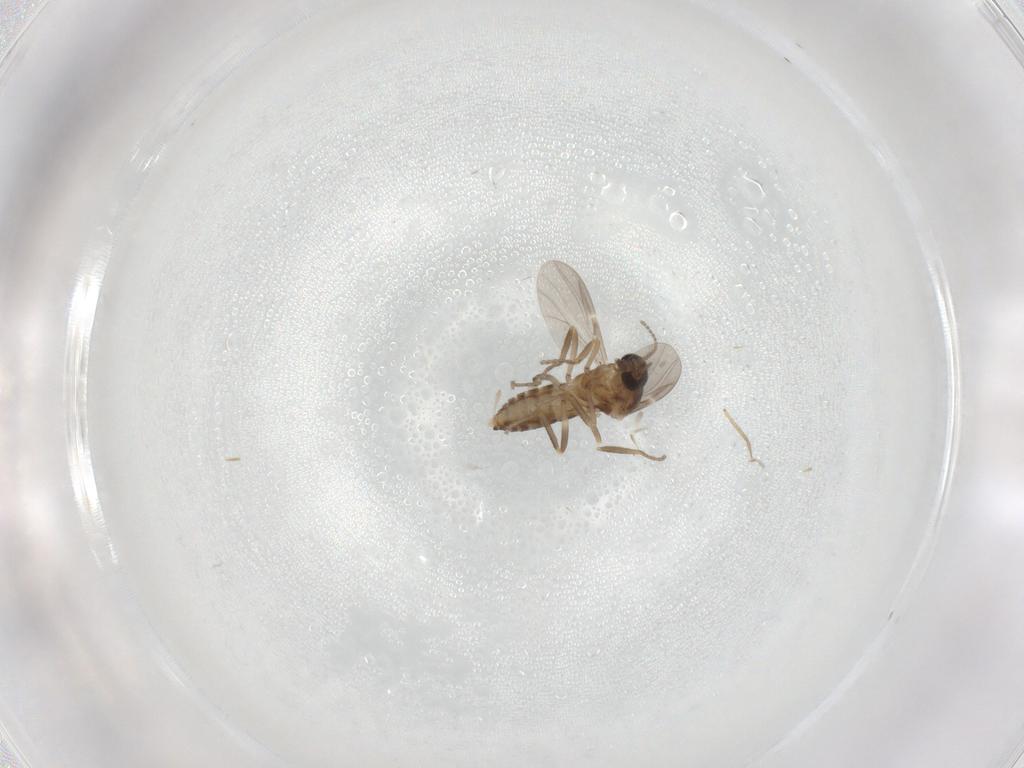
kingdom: Animalia
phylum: Arthropoda
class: Insecta
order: Diptera
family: Ceratopogonidae
